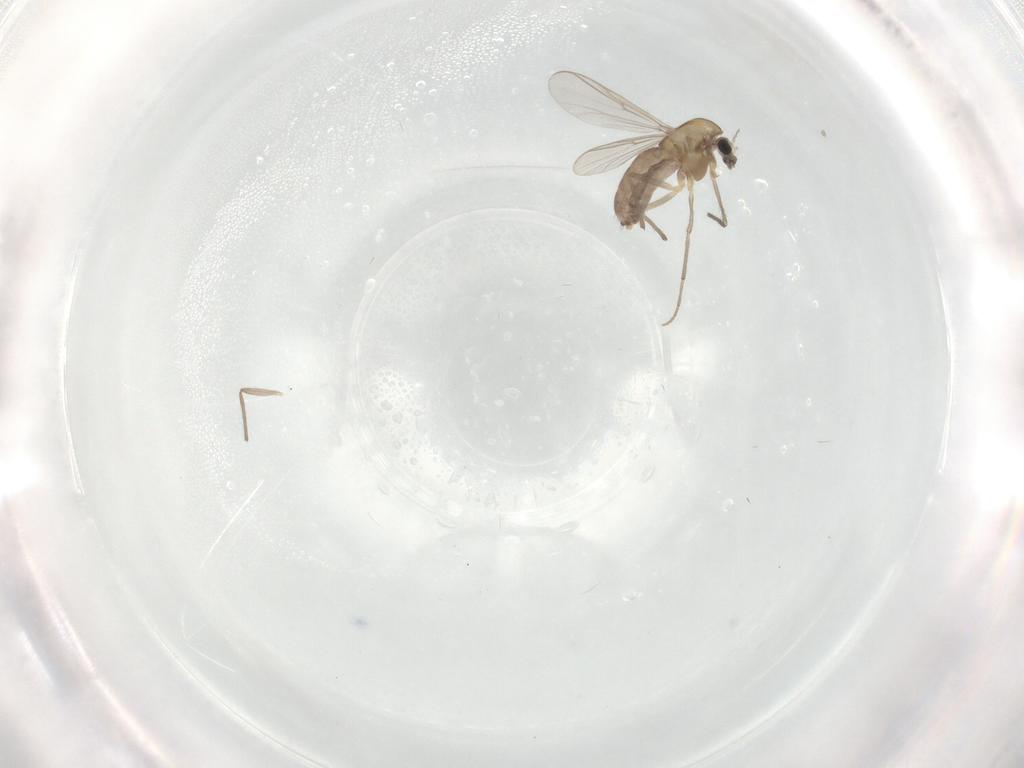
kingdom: Animalia
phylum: Arthropoda
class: Insecta
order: Diptera
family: Chironomidae
